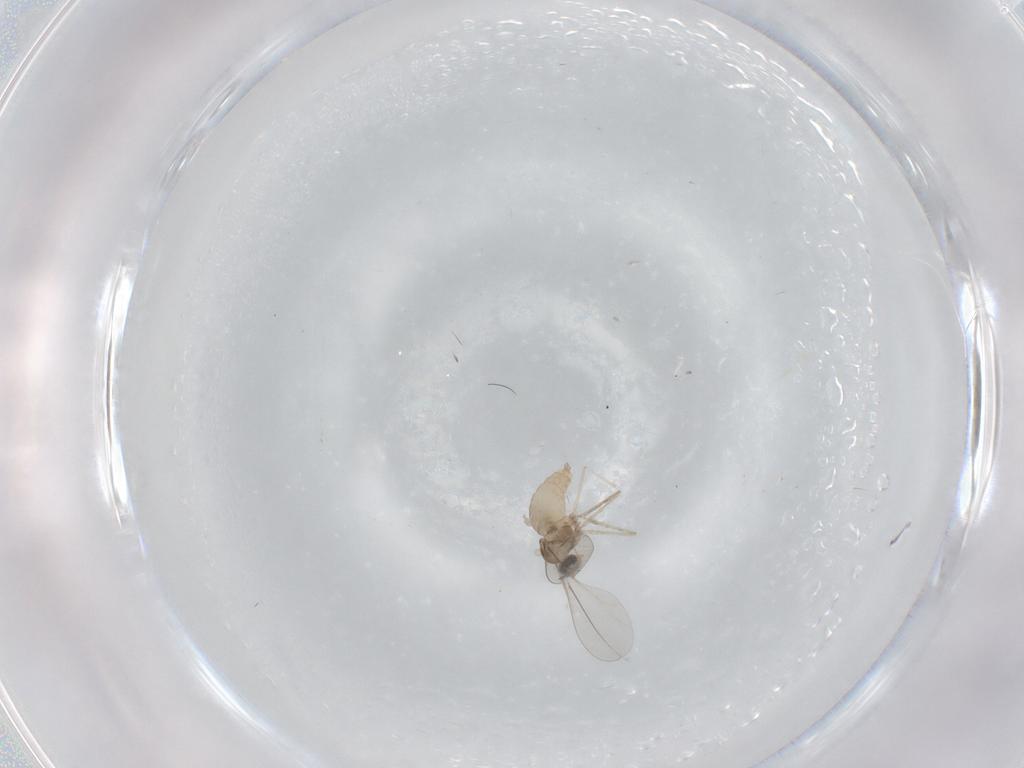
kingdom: Animalia
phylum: Arthropoda
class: Insecta
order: Diptera
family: Cecidomyiidae
